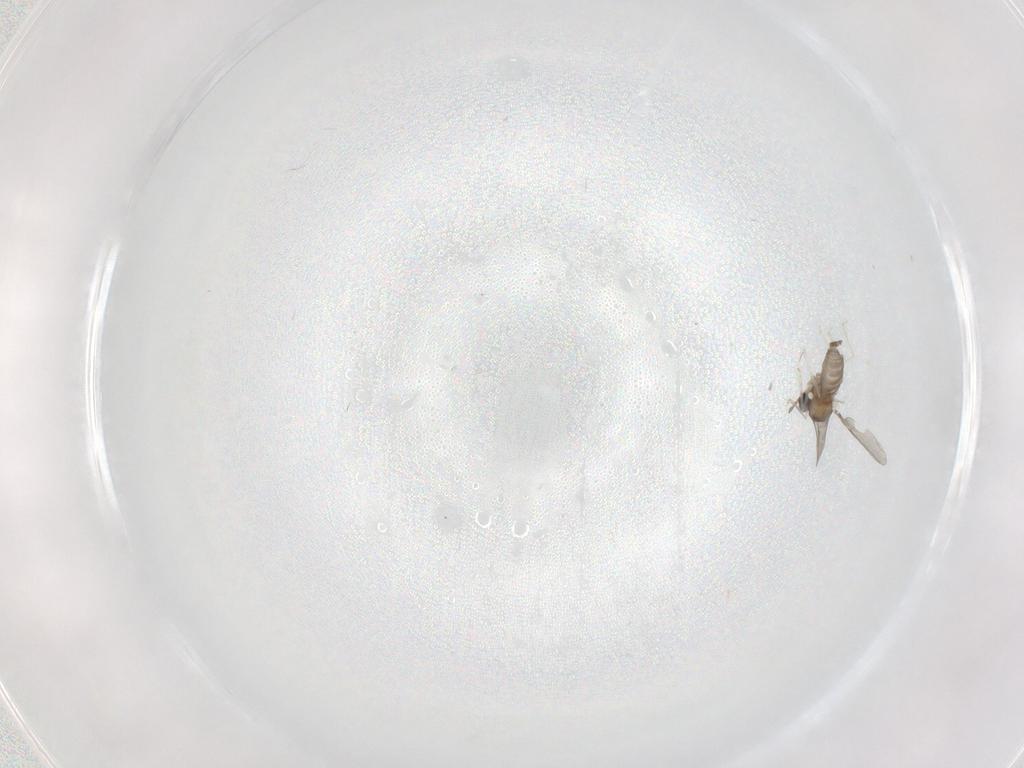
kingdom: Animalia
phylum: Arthropoda
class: Insecta
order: Diptera
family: Cecidomyiidae
